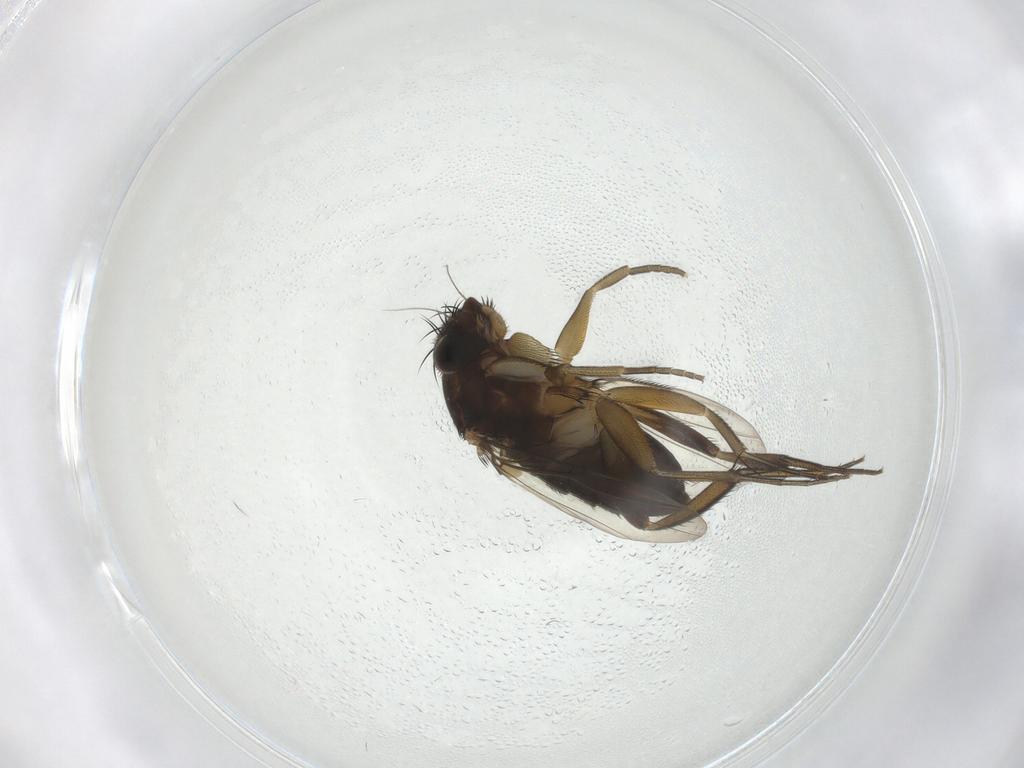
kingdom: Animalia
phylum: Arthropoda
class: Insecta
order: Diptera
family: Phoridae
